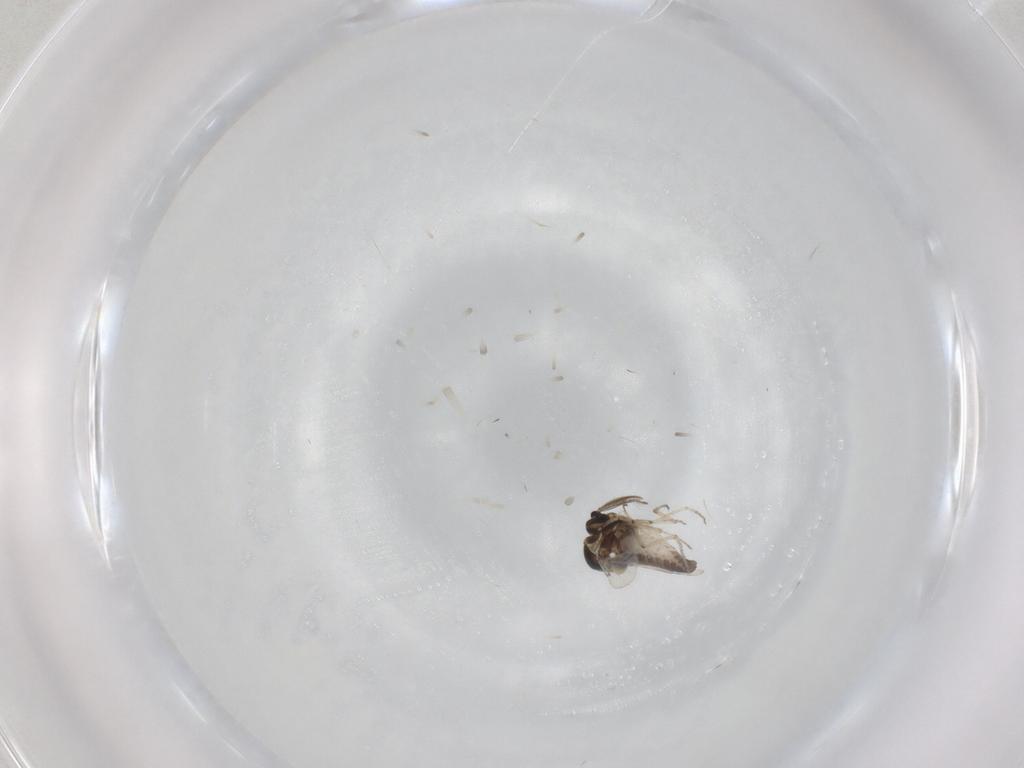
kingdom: Animalia
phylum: Arthropoda
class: Insecta
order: Diptera
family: Ceratopogonidae
